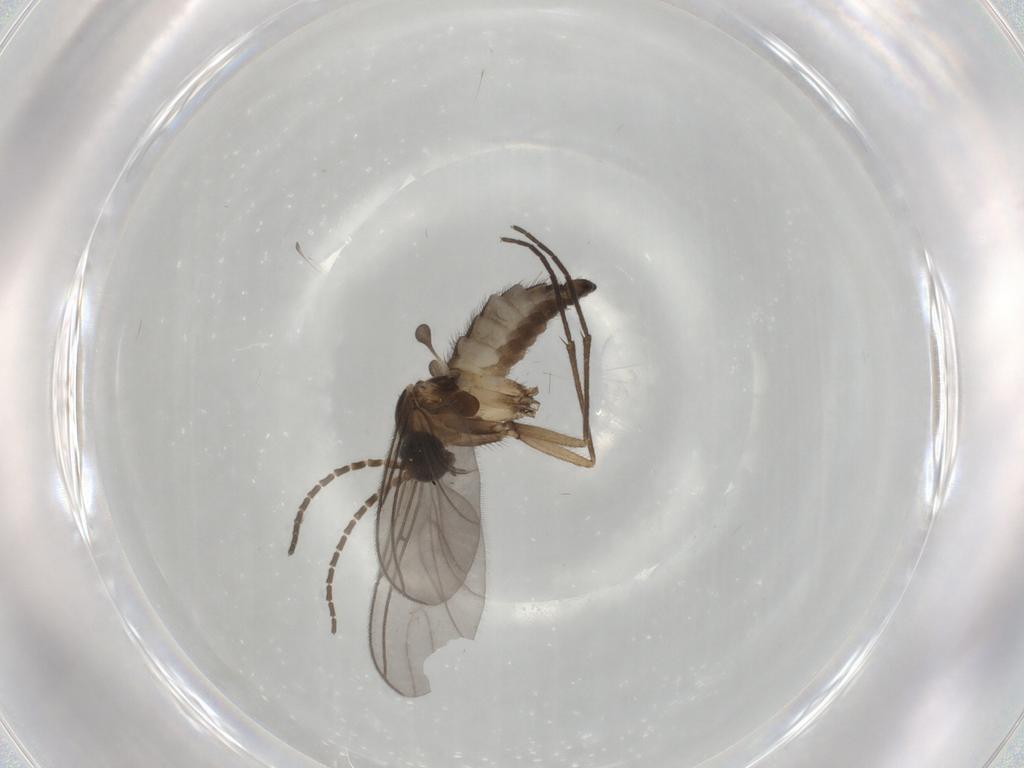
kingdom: Animalia
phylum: Arthropoda
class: Insecta
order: Diptera
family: Sciaridae
